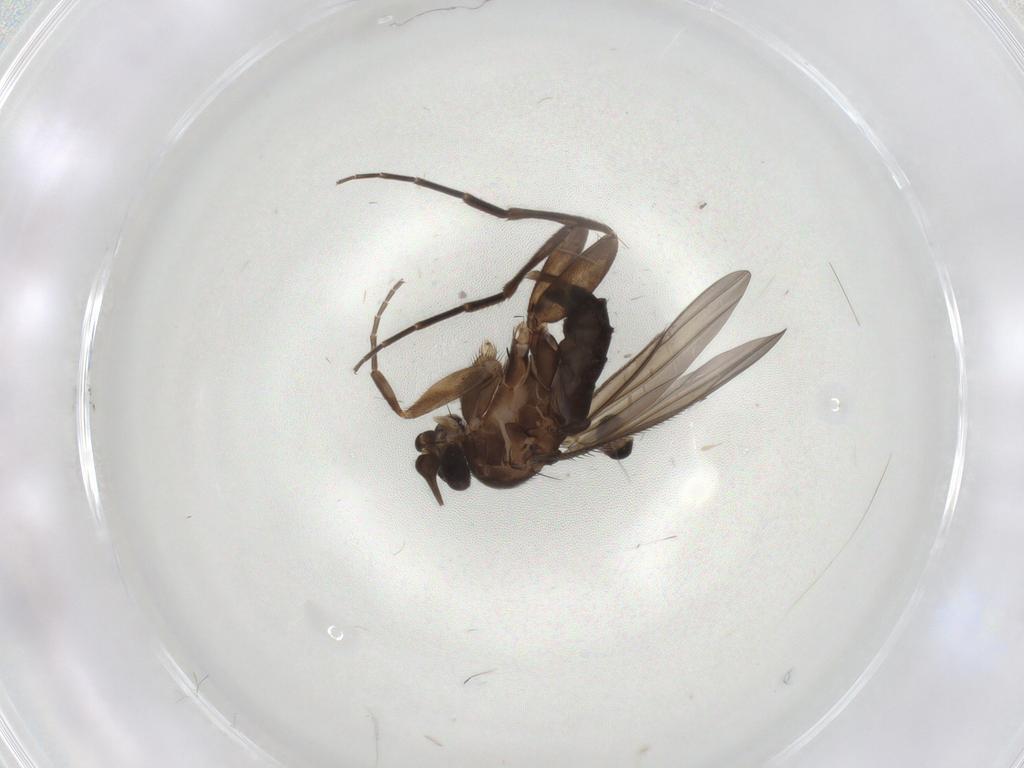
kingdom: Animalia
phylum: Arthropoda
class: Insecta
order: Diptera
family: Phoridae
